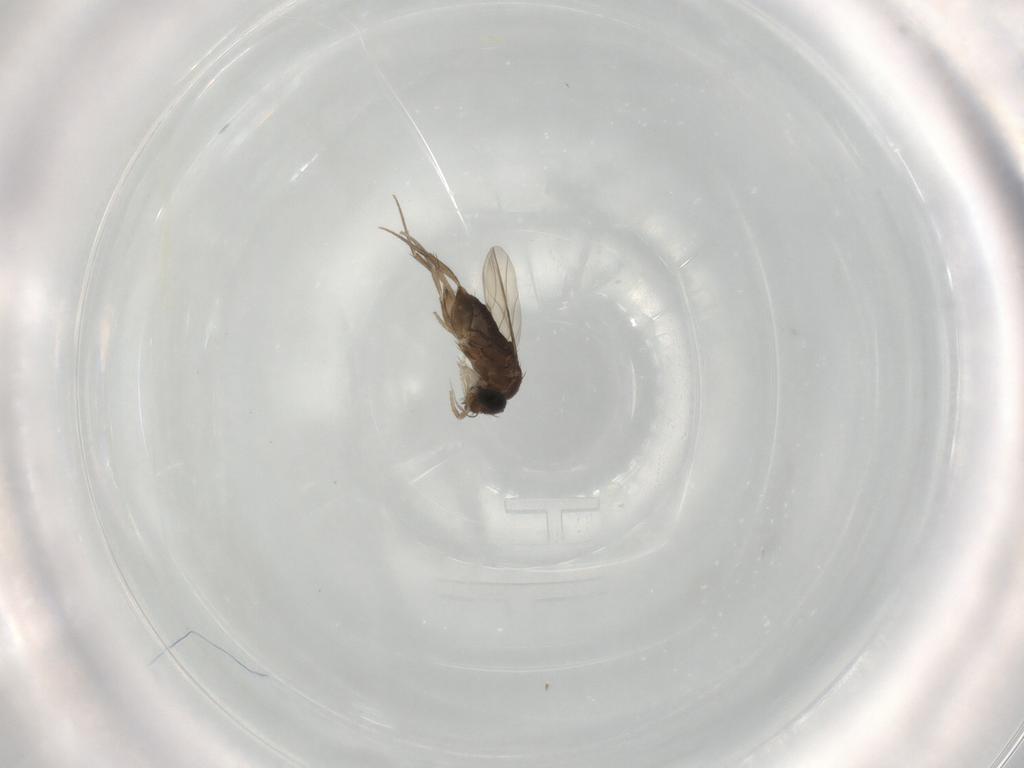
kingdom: Animalia
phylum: Arthropoda
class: Insecta
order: Diptera
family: Phoridae
